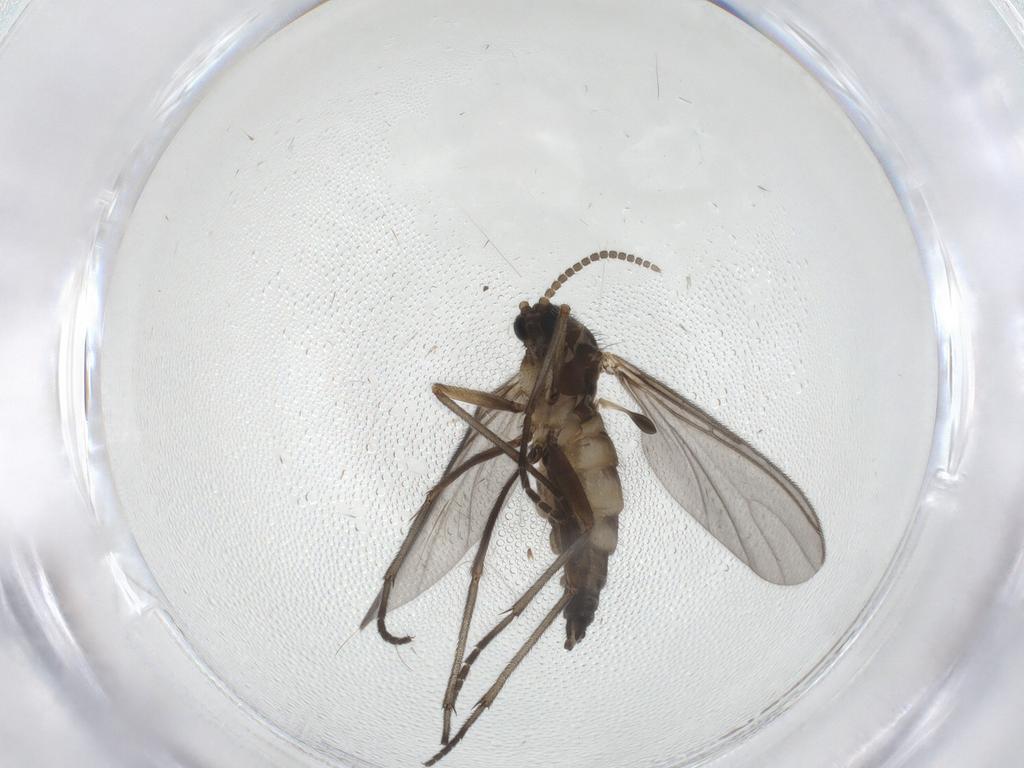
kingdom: Animalia
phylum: Arthropoda
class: Insecta
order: Diptera
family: Sciaridae
